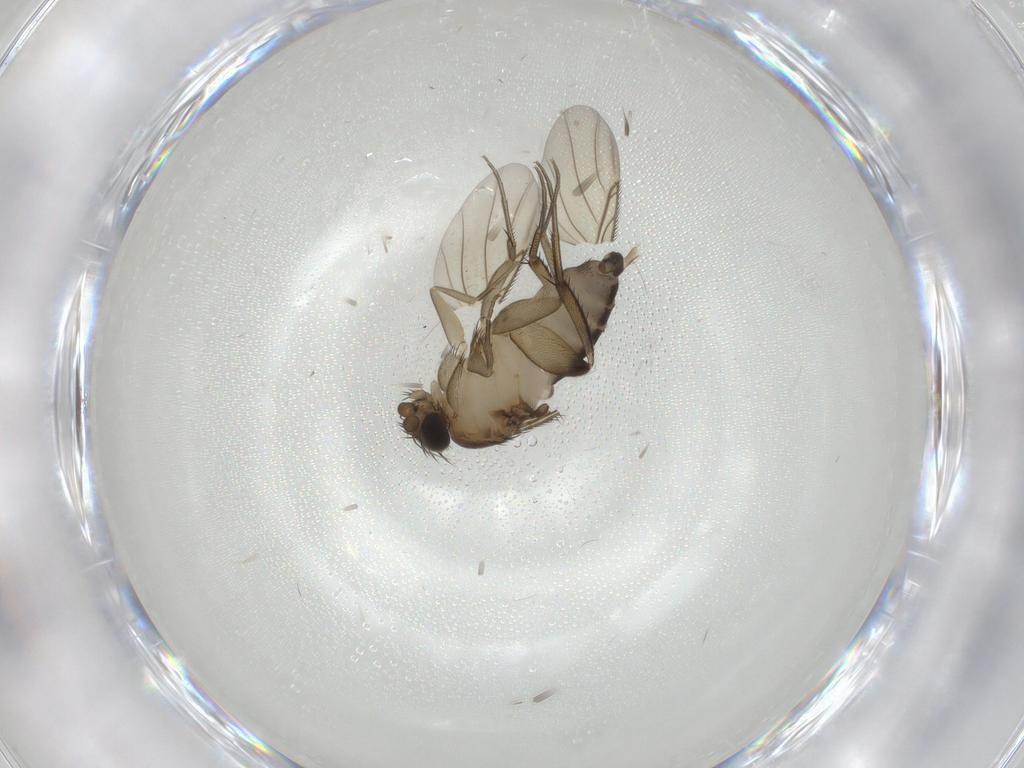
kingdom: Animalia
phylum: Arthropoda
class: Insecta
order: Diptera
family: Phoridae
